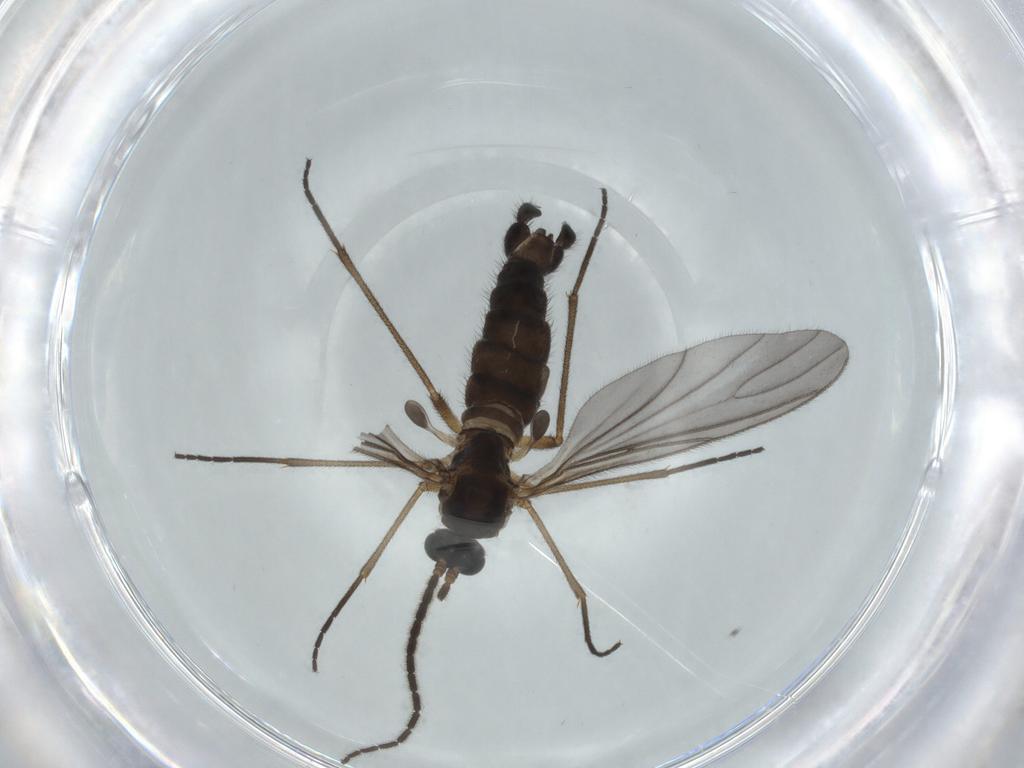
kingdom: Animalia
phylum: Arthropoda
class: Insecta
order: Diptera
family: Sciaridae
